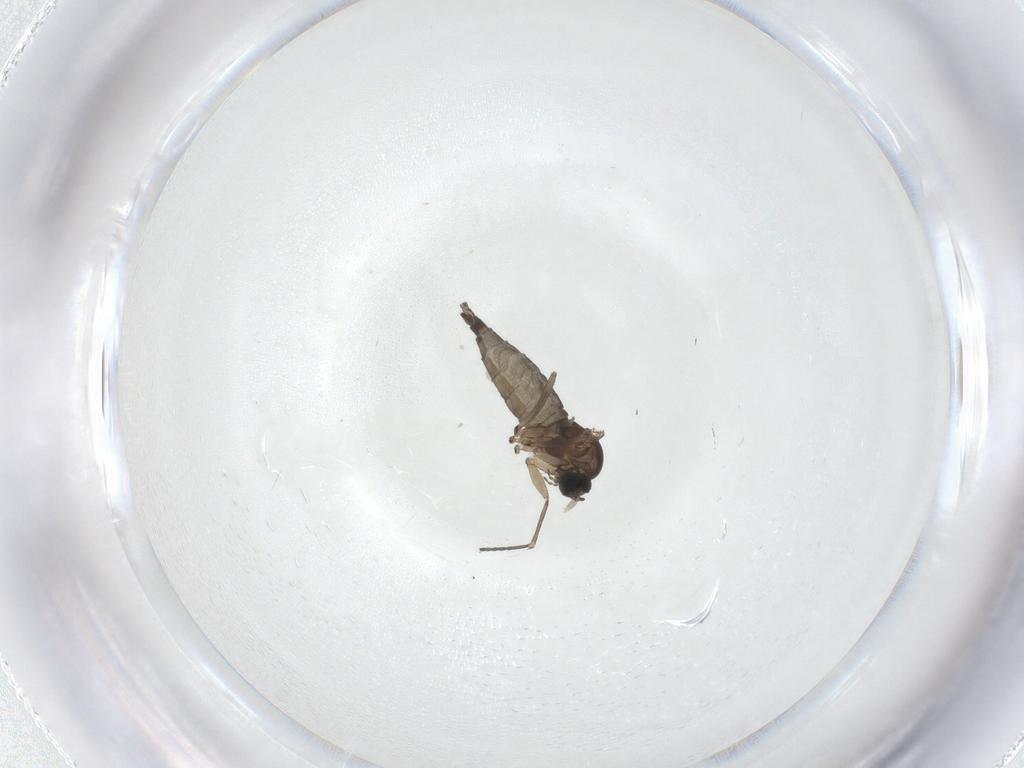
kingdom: Animalia
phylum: Arthropoda
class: Insecta
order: Diptera
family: Sciaridae
